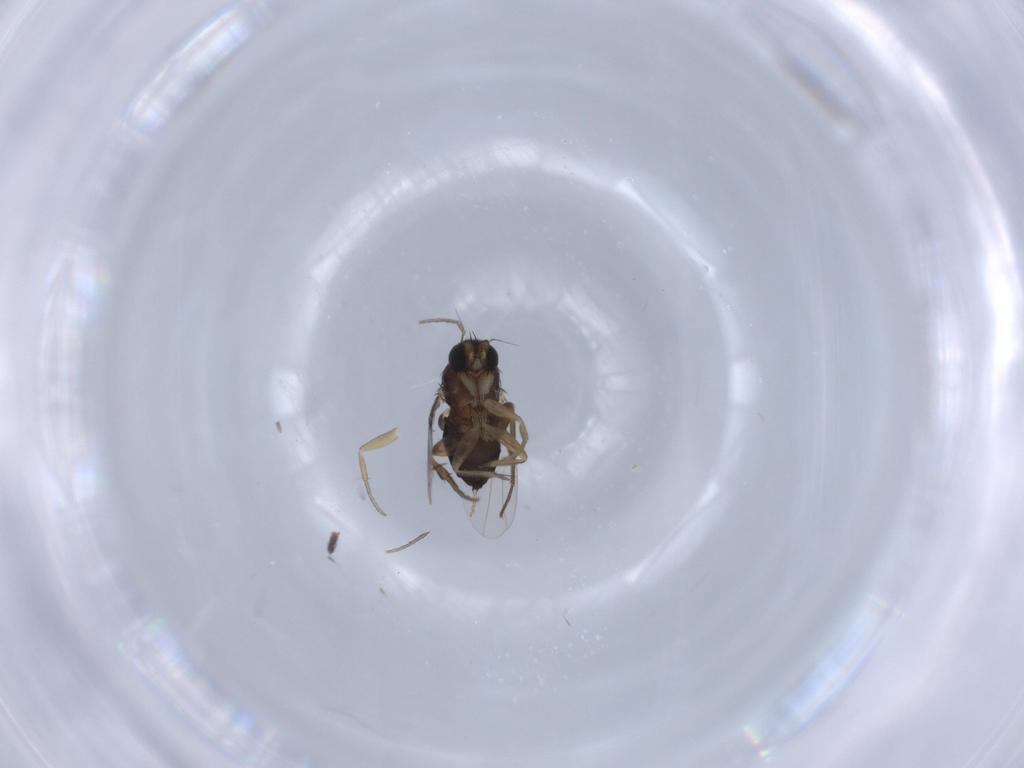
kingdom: Animalia
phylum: Arthropoda
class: Insecta
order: Diptera
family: Phoridae
